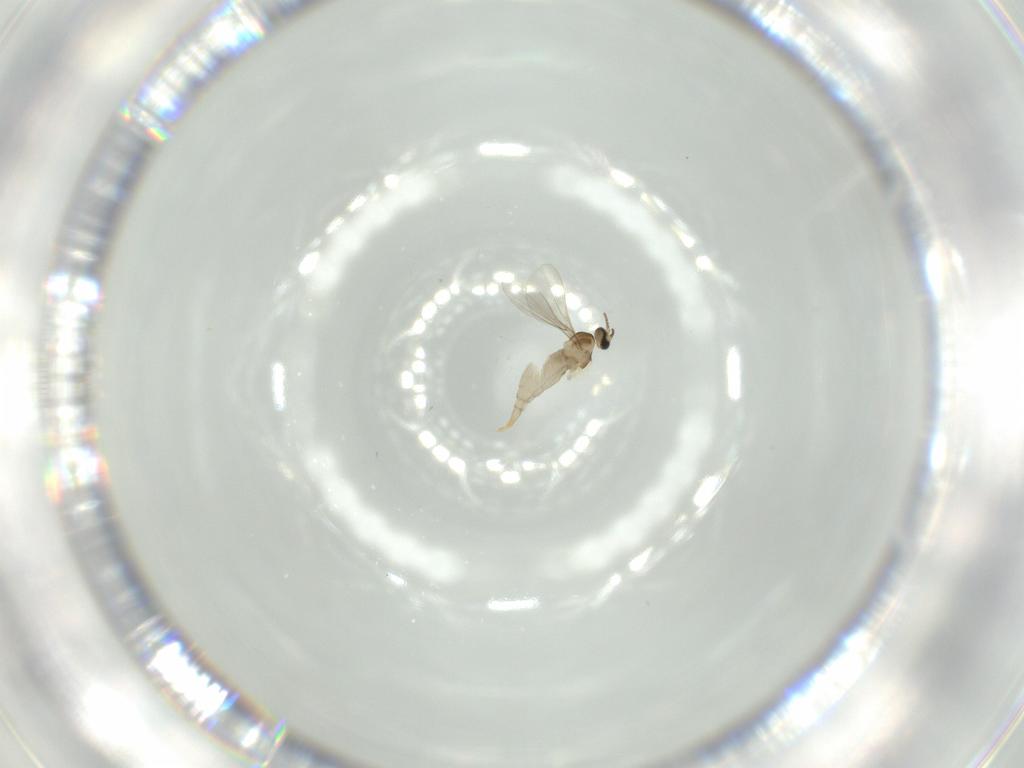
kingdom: Animalia
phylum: Arthropoda
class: Insecta
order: Diptera
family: Cecidomyiidae
